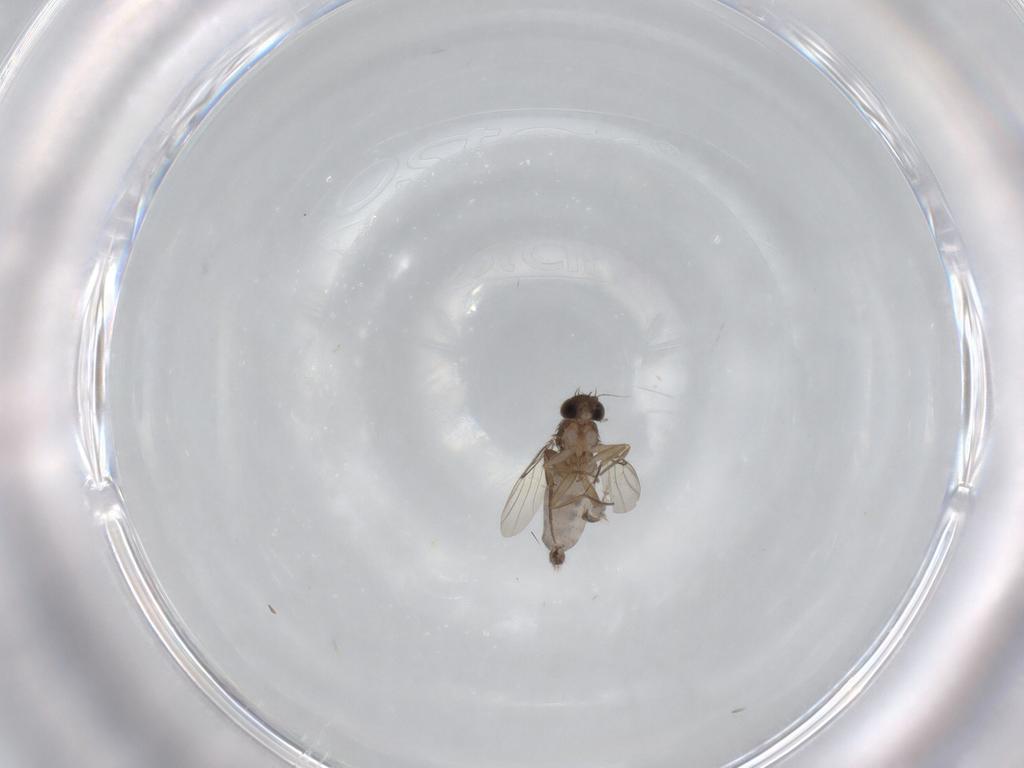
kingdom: Animalia
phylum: Arthropoda
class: Insecta
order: Diptera
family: Cecidomyiidae
